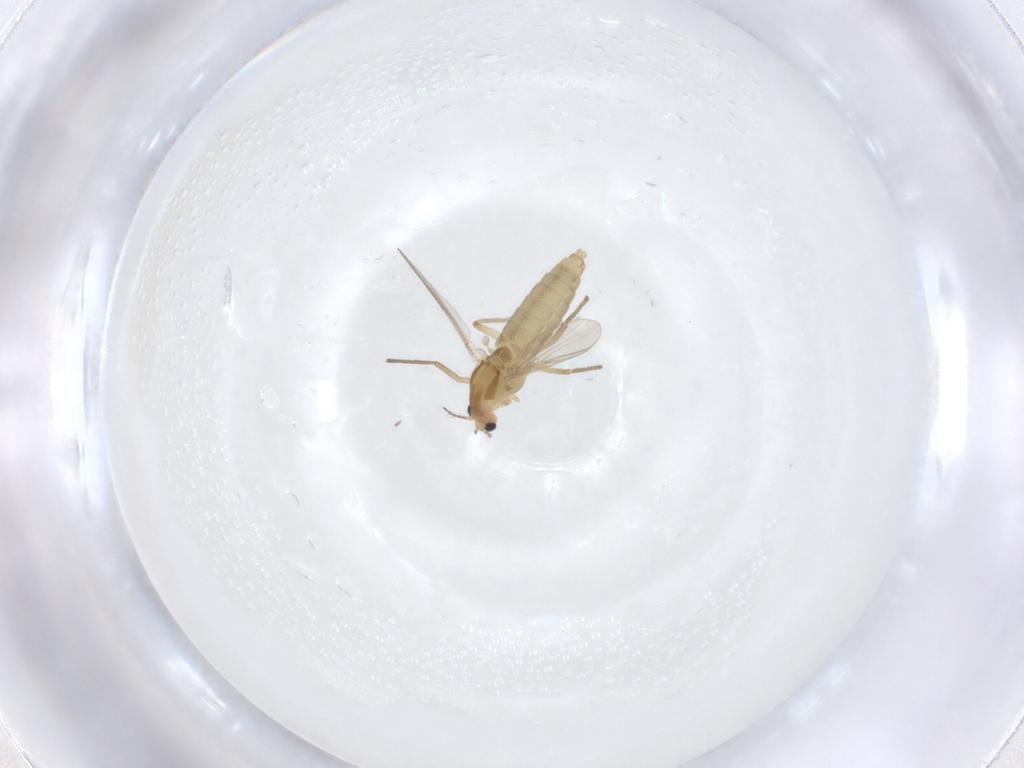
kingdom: Animalia
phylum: Arthropoda
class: Insecta
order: Diptera
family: Chironomidae
